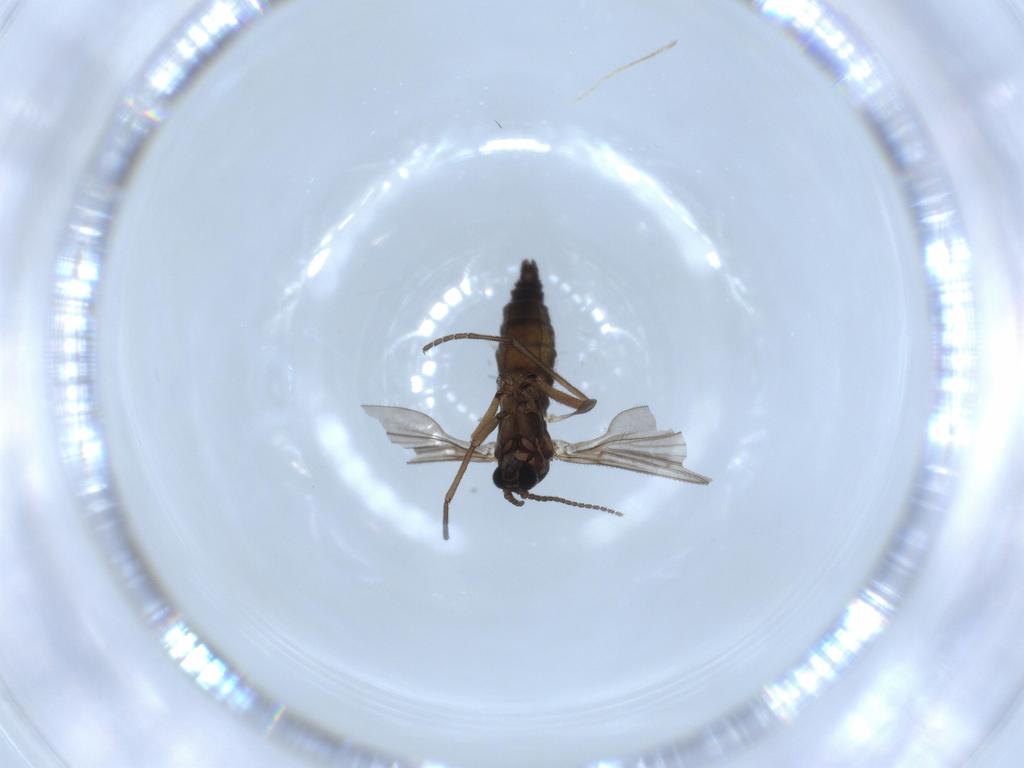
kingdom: Animalia
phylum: Arthropoda
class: Insecta
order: Diptera
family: Sciaridae
